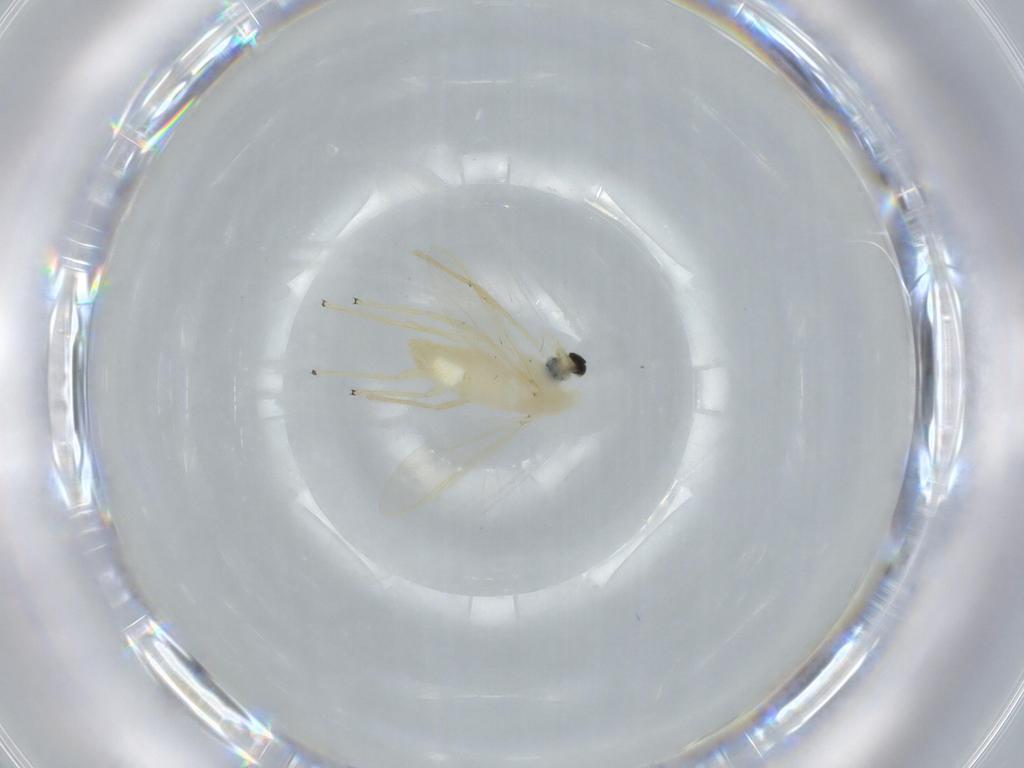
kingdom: Animalia
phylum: Arthropoda
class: Insecta
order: Diptera
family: Chironomidae
